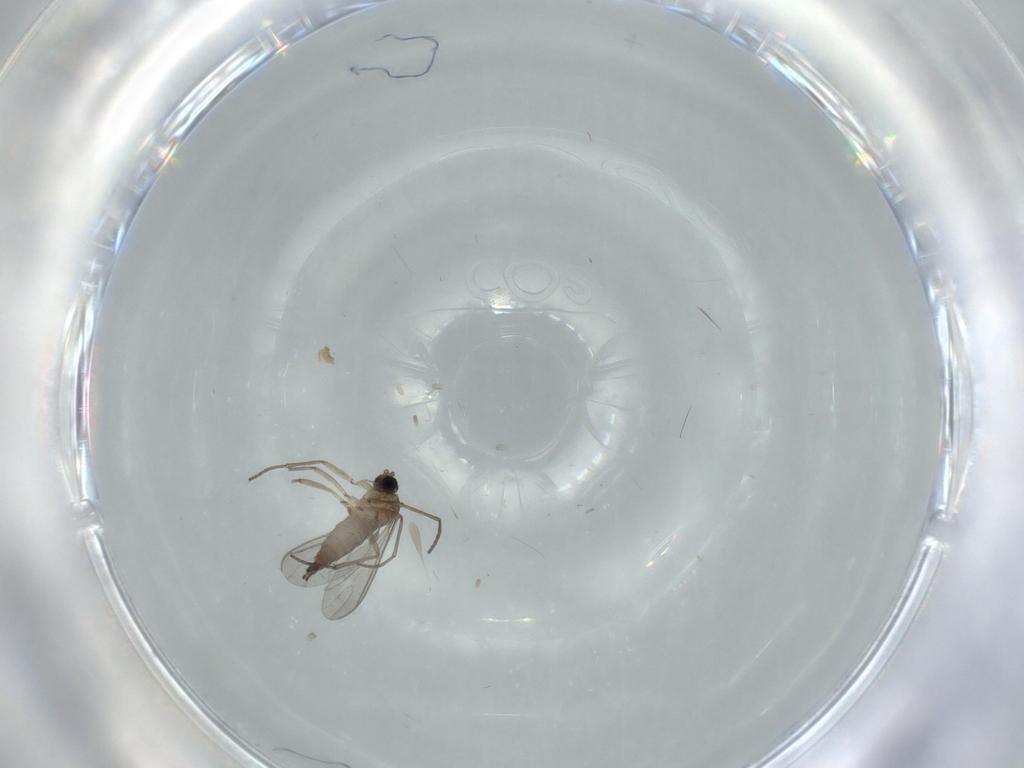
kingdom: Animalia
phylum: Arthropoda
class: Insecta
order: Diptera
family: Sciaridae
